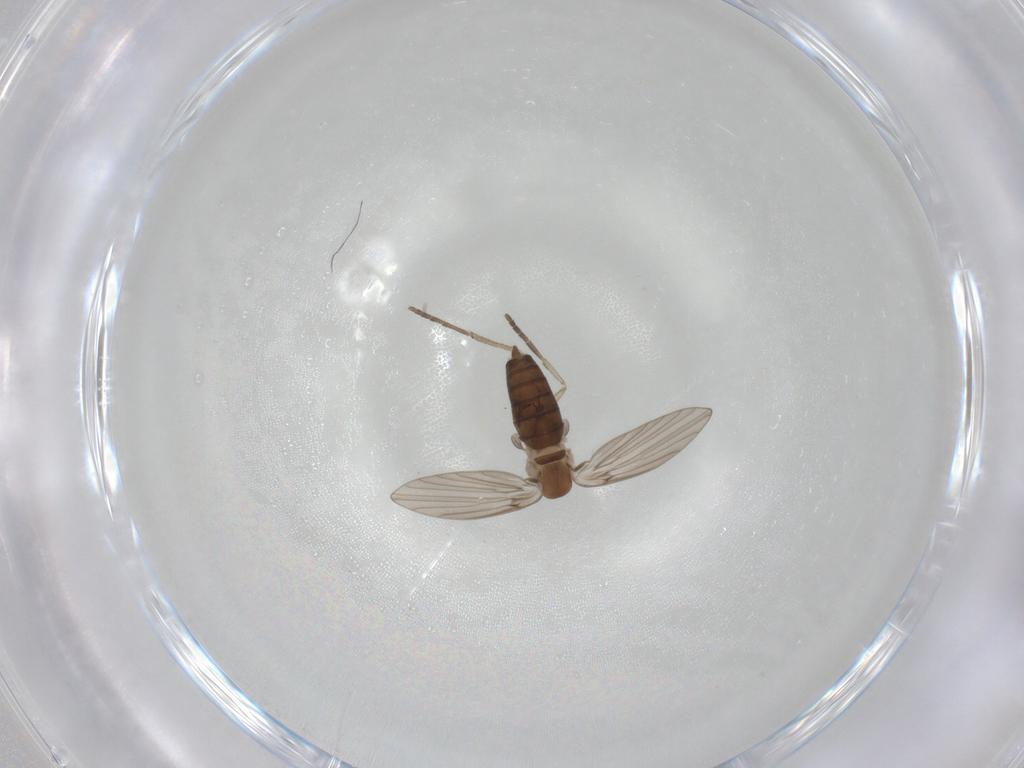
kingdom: Animalia
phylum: Arthropoda
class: Insecta
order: Diptera
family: Psychodidae
